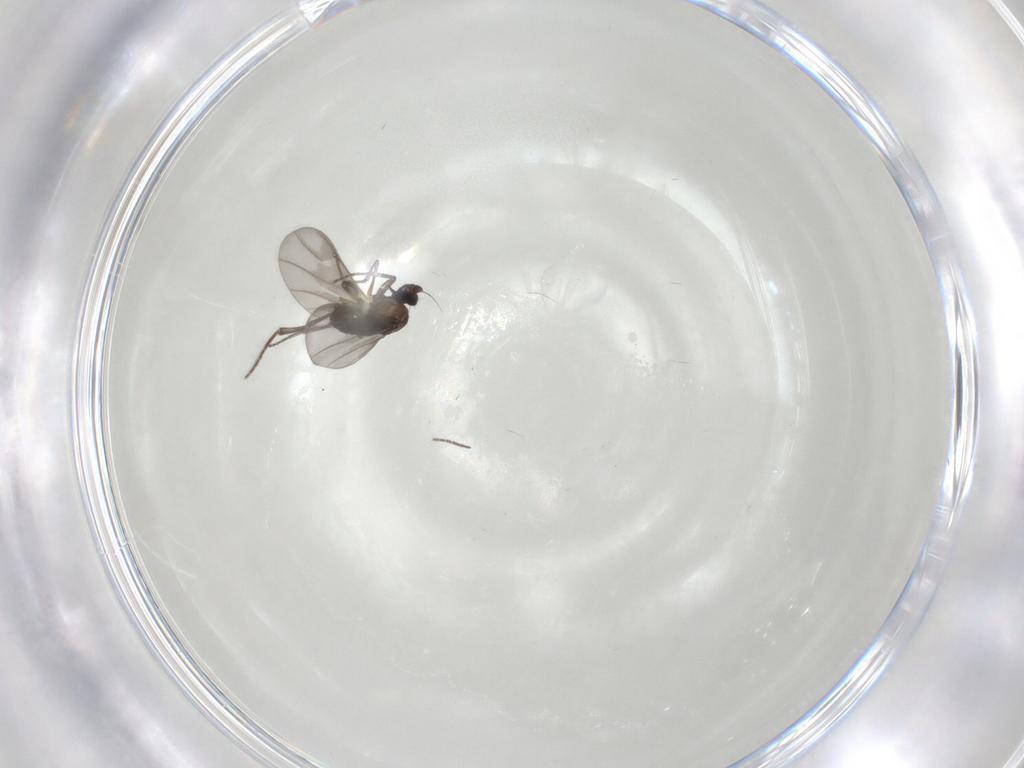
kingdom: Animalia
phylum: Arthropoda
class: Insecta
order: Diptera
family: Phoridae
